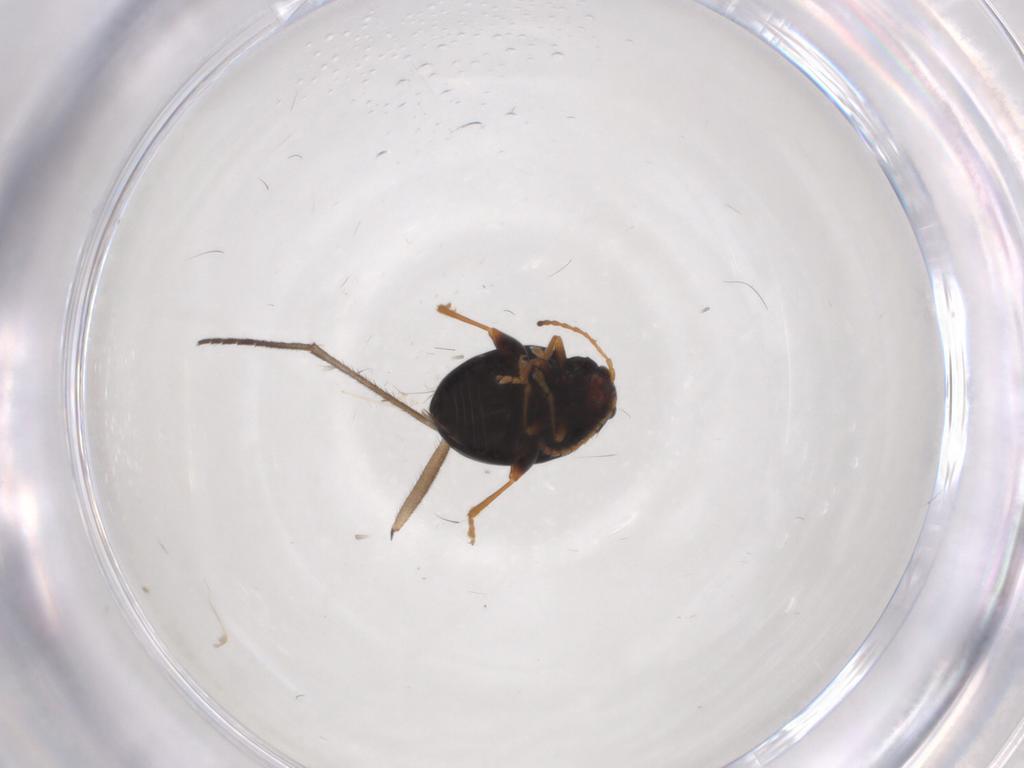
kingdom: Animalia
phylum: Arthropoda
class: Insecta
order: Coleoptera
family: Chrysomelidae
